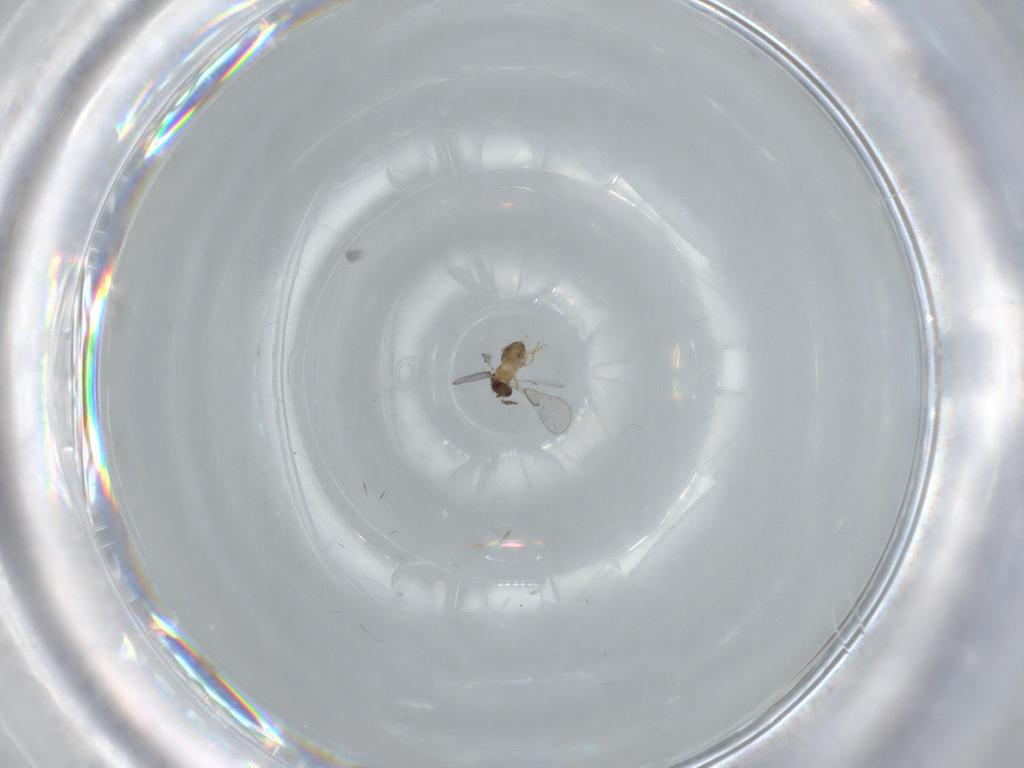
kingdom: Animalia
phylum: Arthropoda
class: Insecta
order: Hymenoptera
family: Trichogrammatidae
